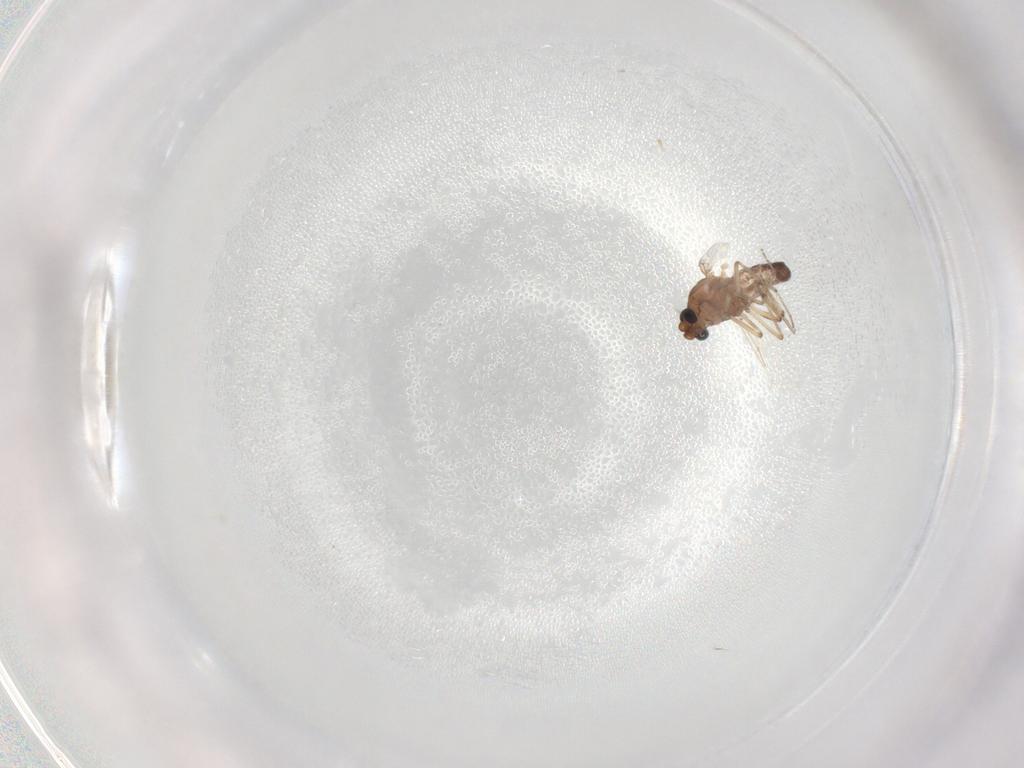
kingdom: Animalia
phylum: Arthropoda
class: Insecta
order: Diptera
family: Ceratopogonidae
